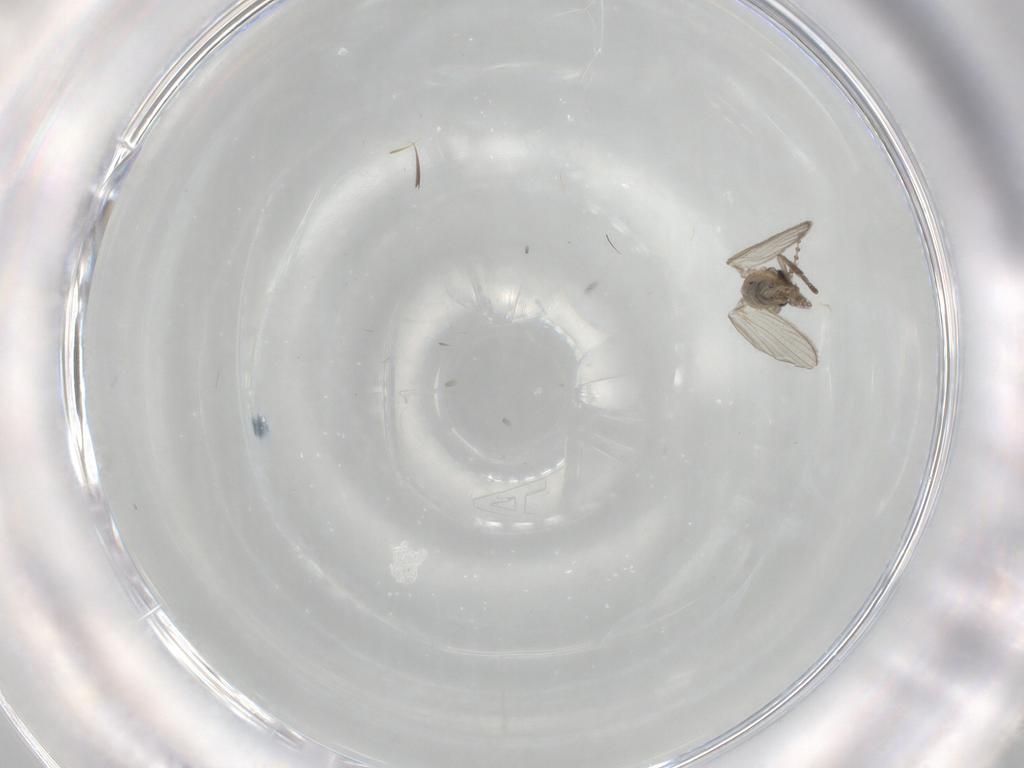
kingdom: Animalia
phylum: Arthropoda
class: Insecta
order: Diptera
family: Psychodidae
